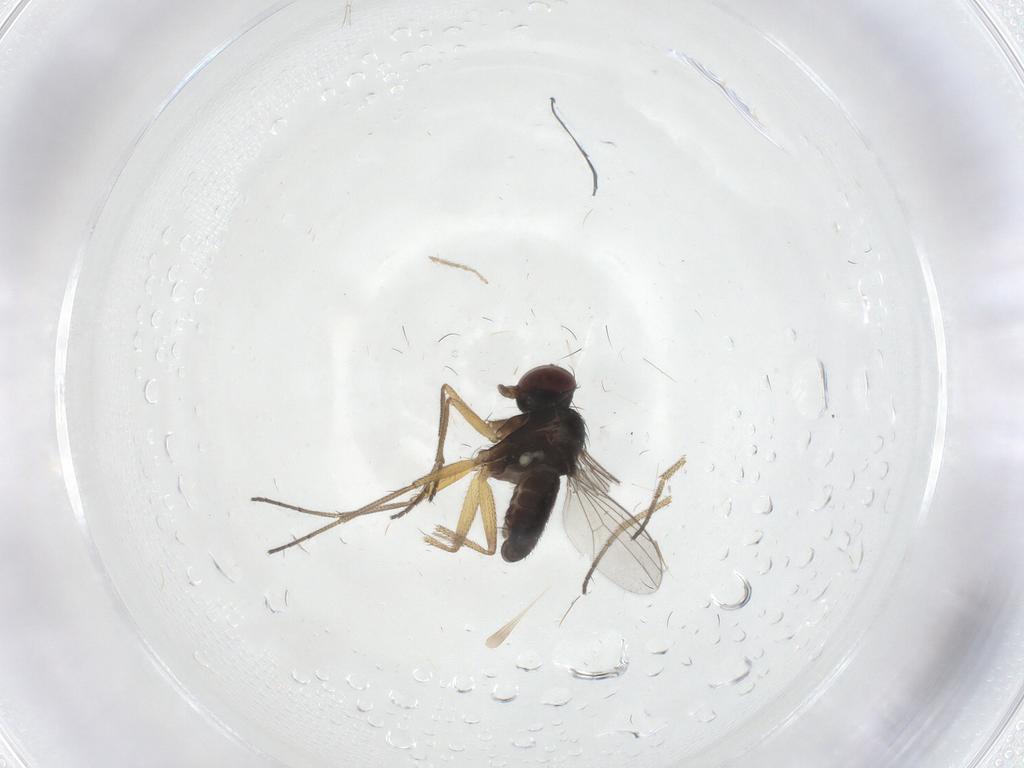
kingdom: Animalia
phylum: Arthropoda
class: Insecta
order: Diptera
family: Dolichopodidae
